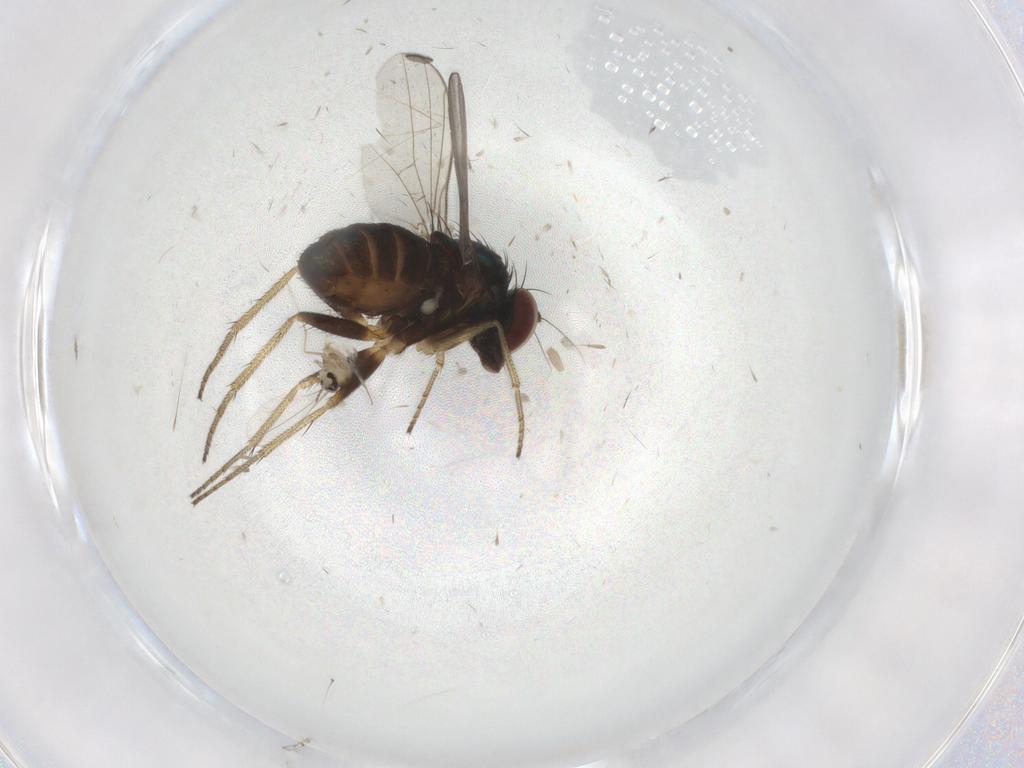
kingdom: Animalia
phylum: Arthropoda
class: Insecta
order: Diptera
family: Cecidomyiidae
